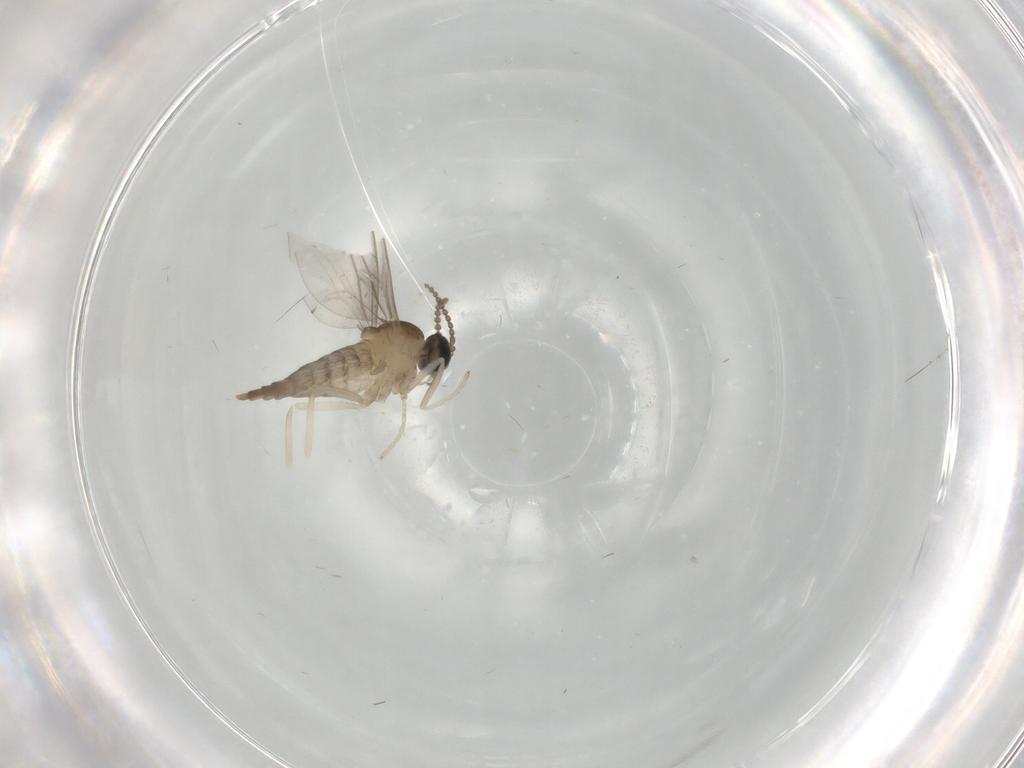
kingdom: Animalia
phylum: Arthropoda
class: Insecta
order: Diptera
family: Cecidomyiidae
